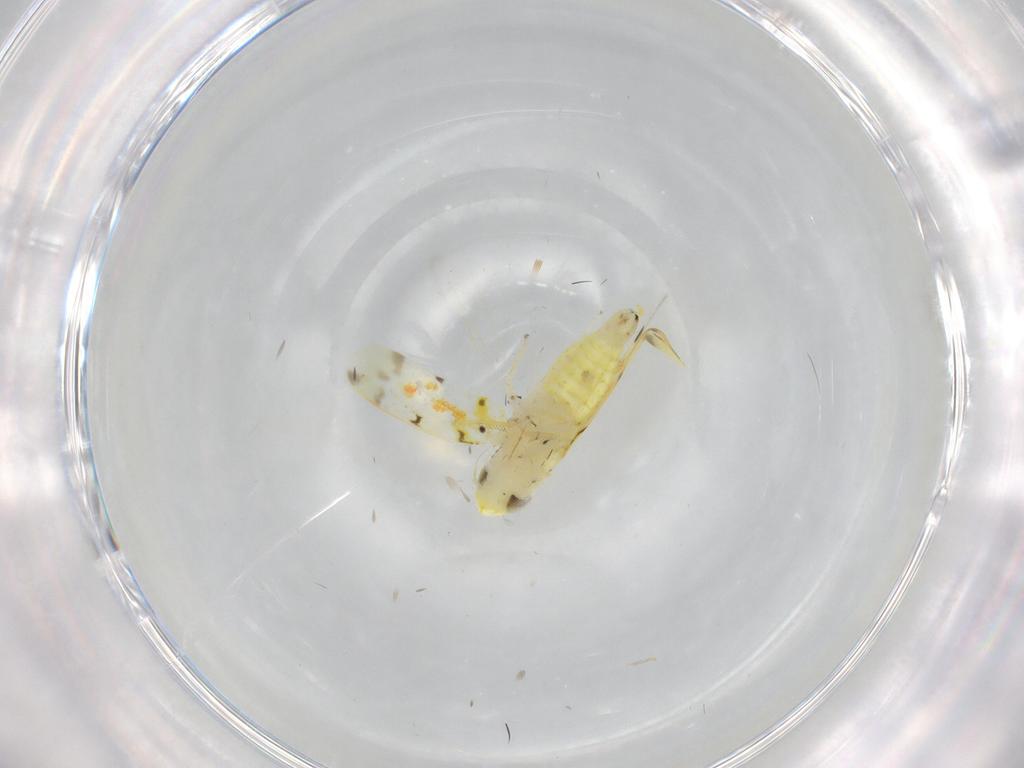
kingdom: Animalia
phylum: Arthropoda
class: Insecta
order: Hemiptera
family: Cicadellidae
